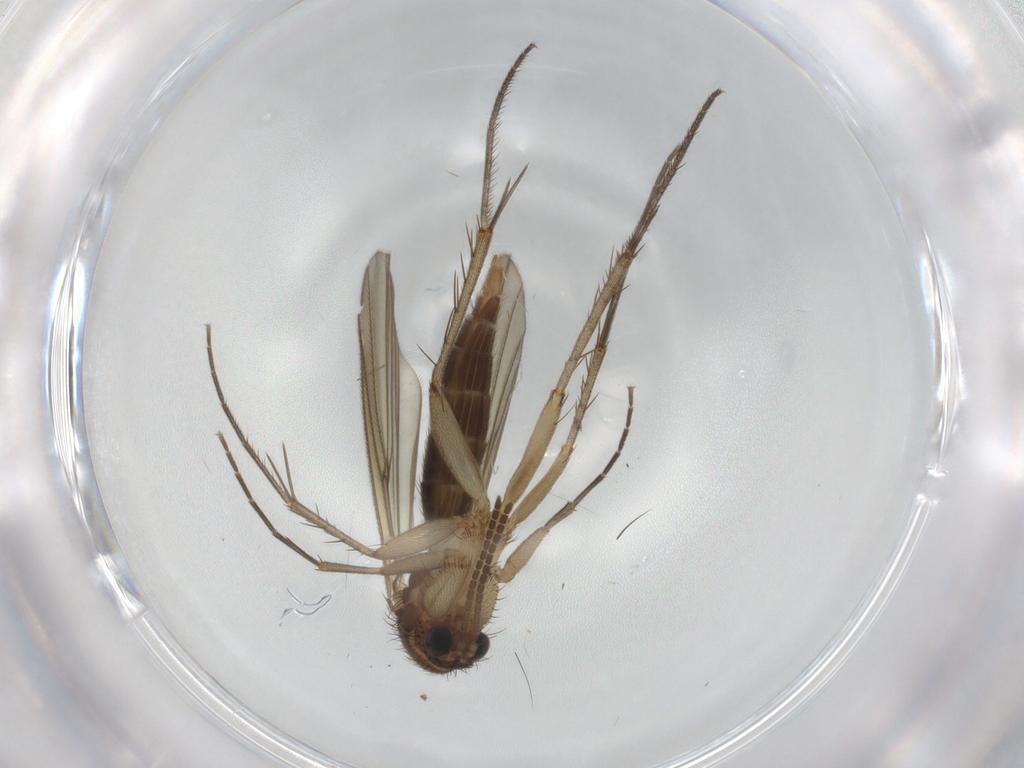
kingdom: Animalia
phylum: Arthropoda
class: Insecta
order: Diptera
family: Mycetophilidae
